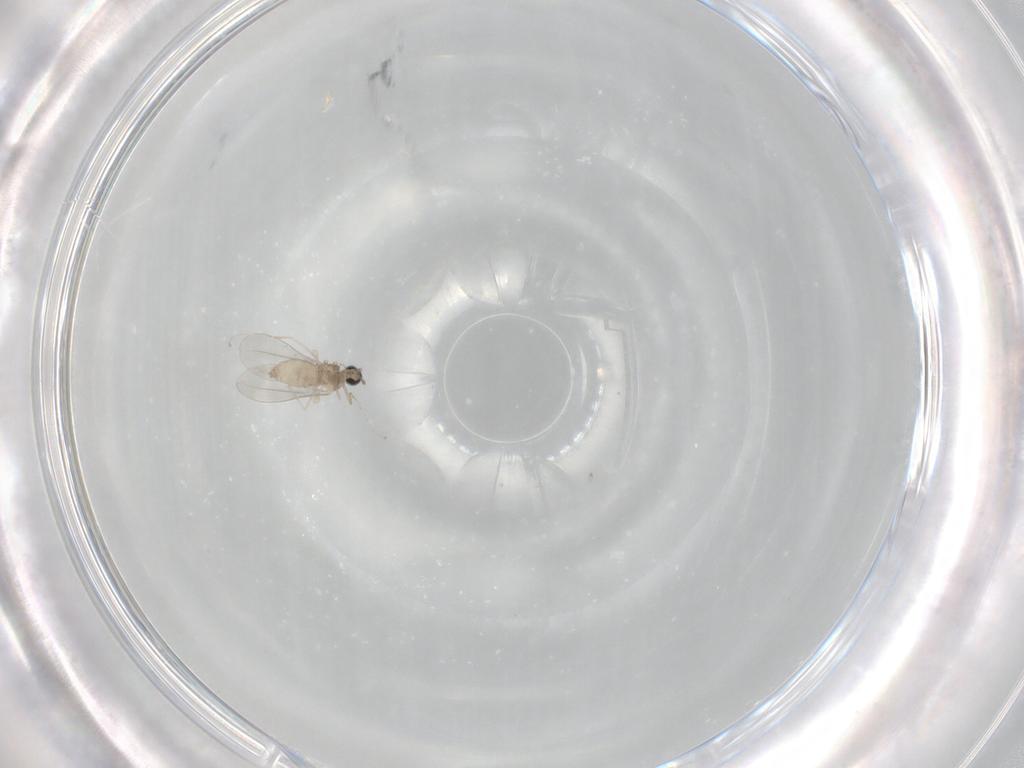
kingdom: Animalia
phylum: Arthropoda
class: Insecta
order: Diptera
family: Cecidomyiidae
